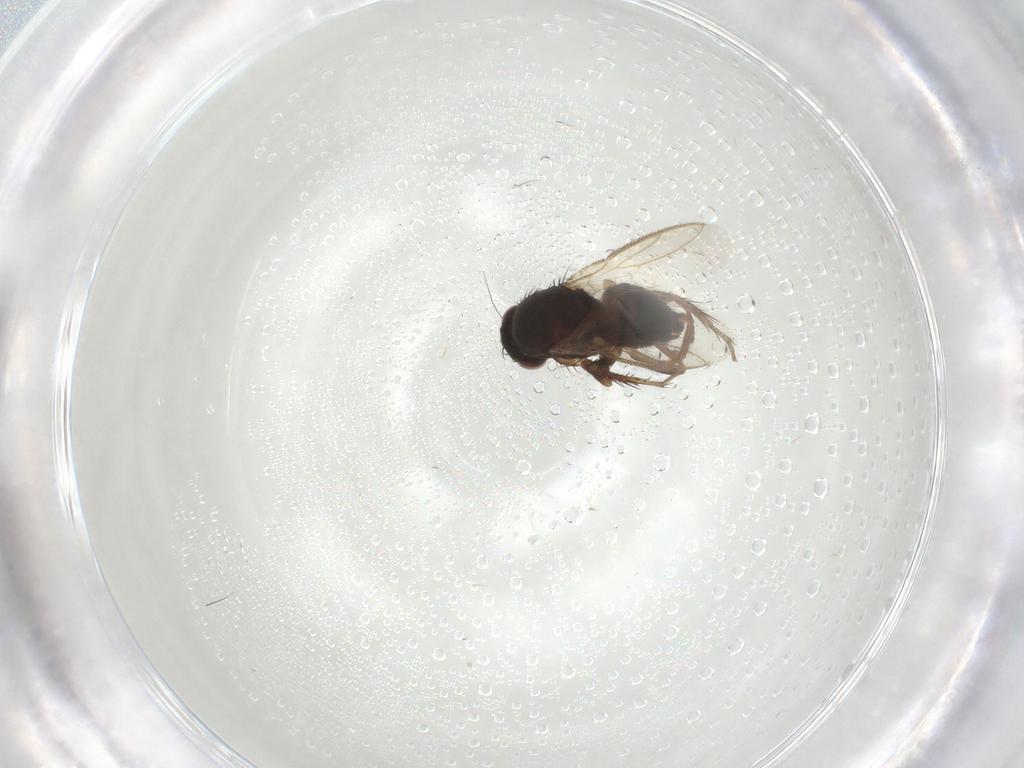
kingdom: Animalia
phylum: Arthropoda
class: Insecta
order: Diptera
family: Sphaeroceridae
